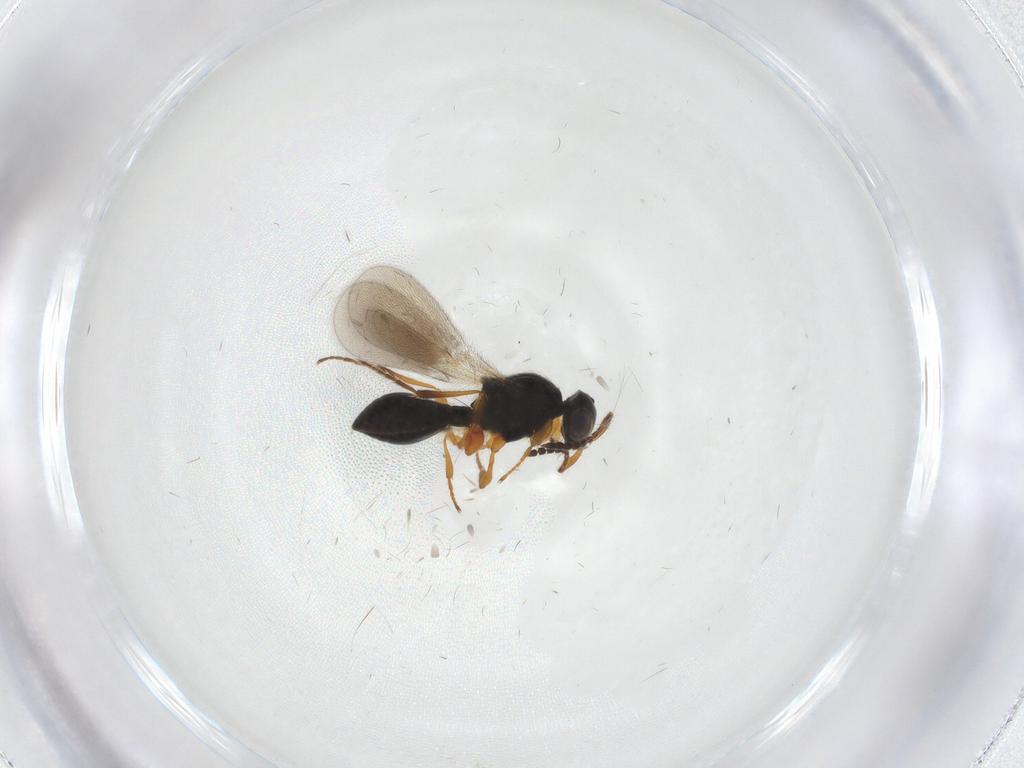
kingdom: Animalia
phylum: Arthropoda
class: Insecta
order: Hymenoptera
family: Platygastridae
